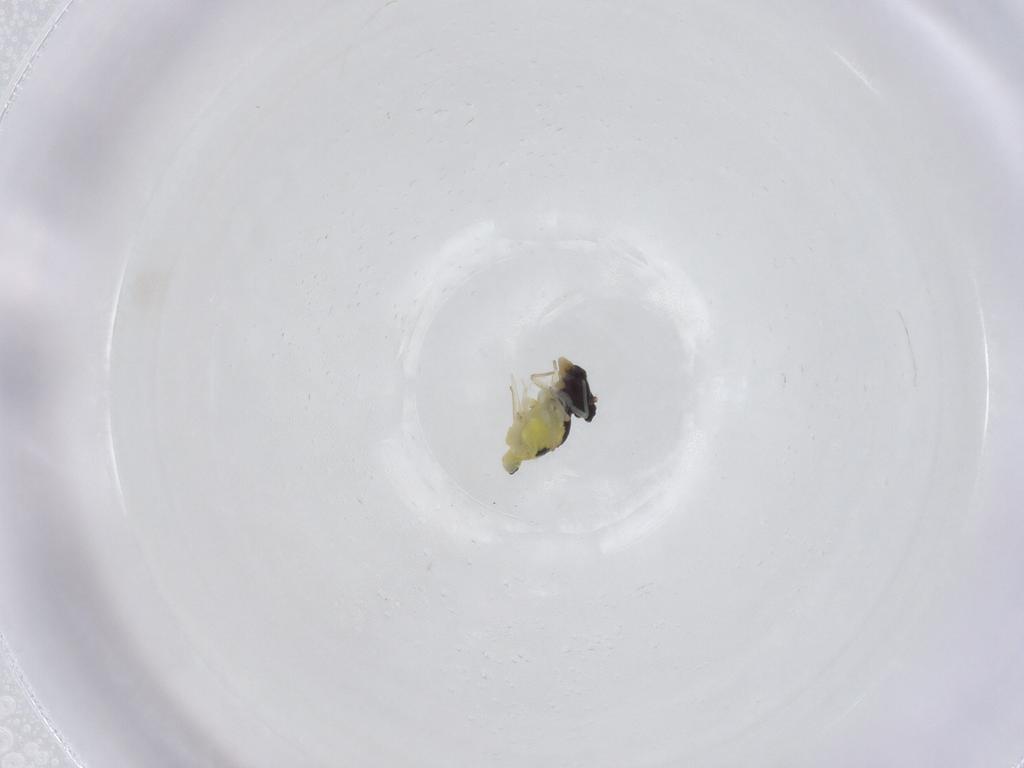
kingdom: Animalia
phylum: Arthropoda
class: Collembola
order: Symphypleona
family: Bourletiellidae
